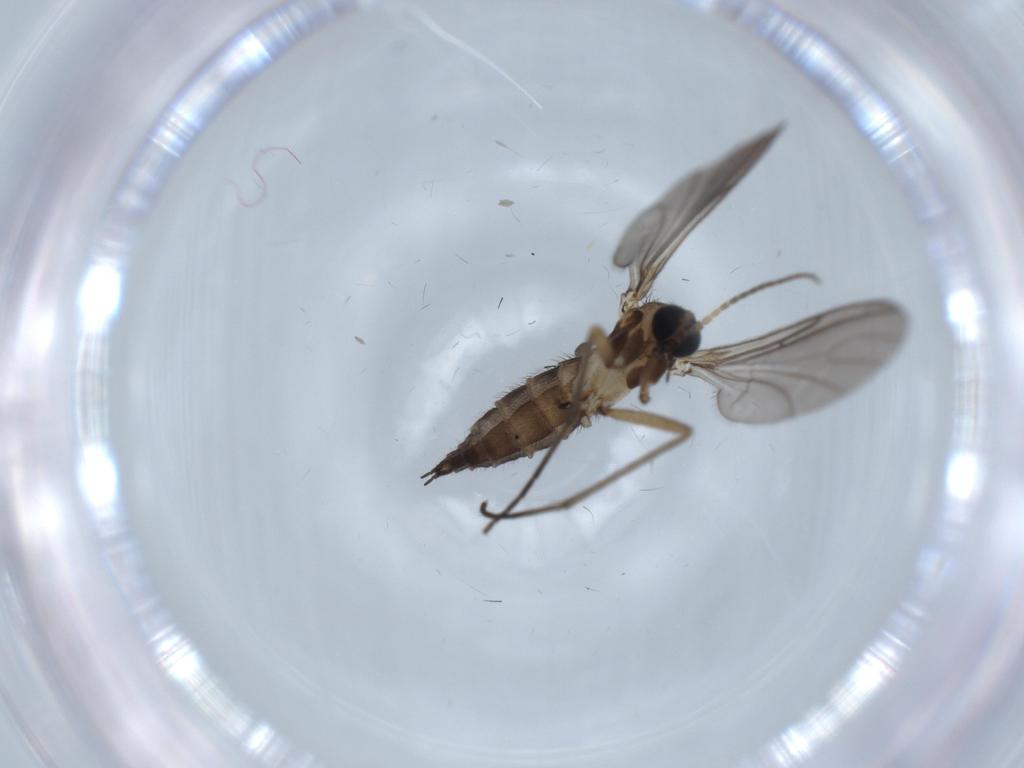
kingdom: Animalia
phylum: Arthropoda
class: Insecta
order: Diptera
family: Sciaridae
